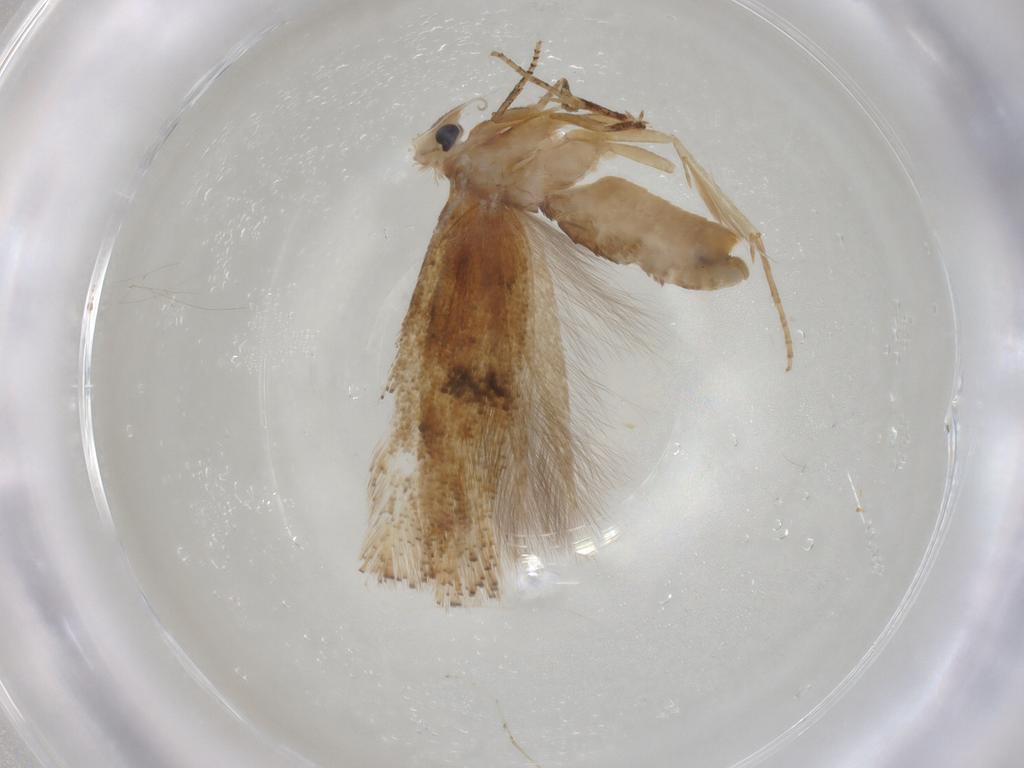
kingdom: Animalia
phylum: Arthropoda
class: Insecta
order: Lepidoptera
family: Bucculatricidae
